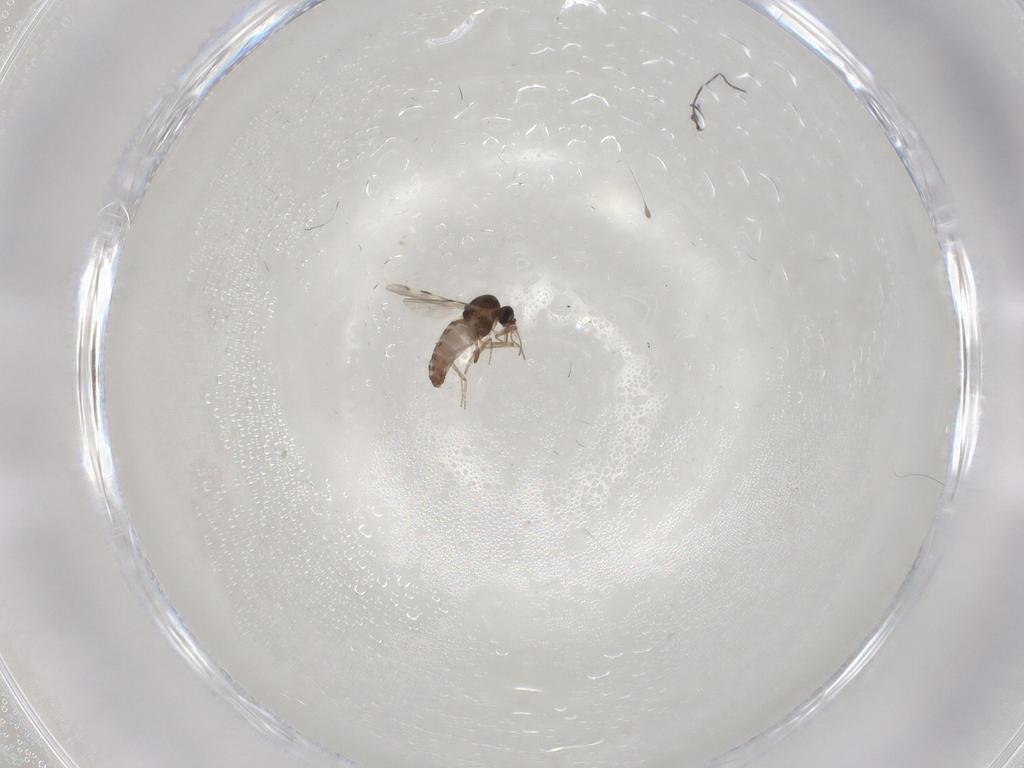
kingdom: Animalia
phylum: Arthropoda
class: Insecta
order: Diptera
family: Phoridae
